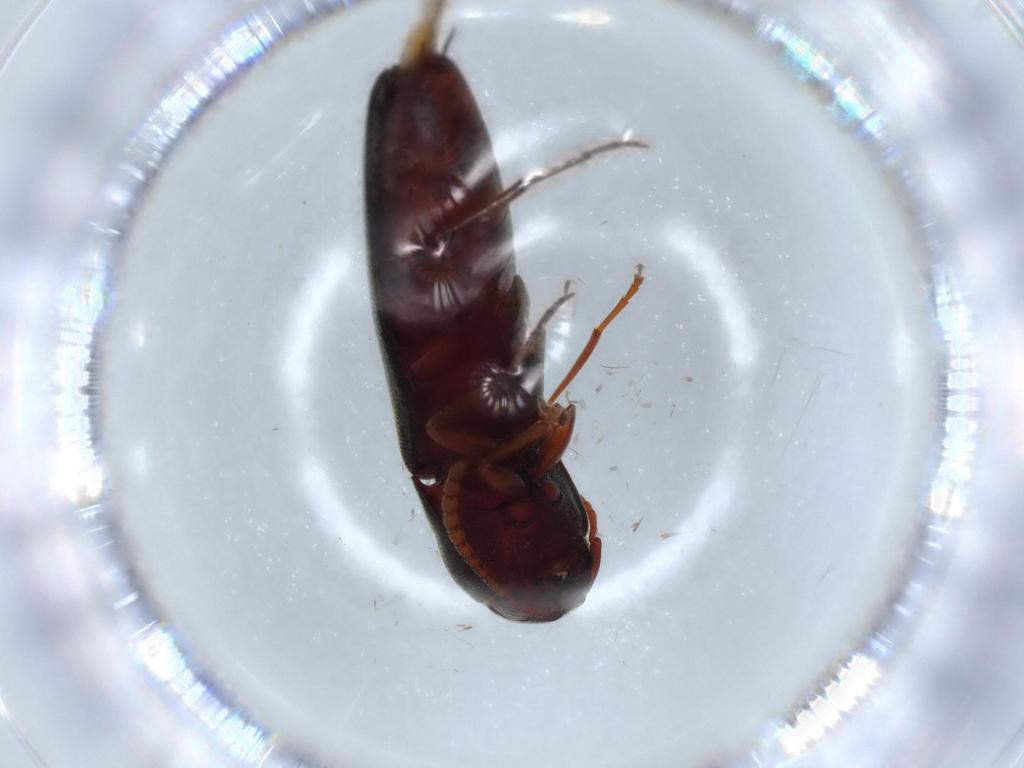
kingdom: Animalia
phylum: Arthropoda
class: Insecta
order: Coleoptera
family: Eucnemidae
